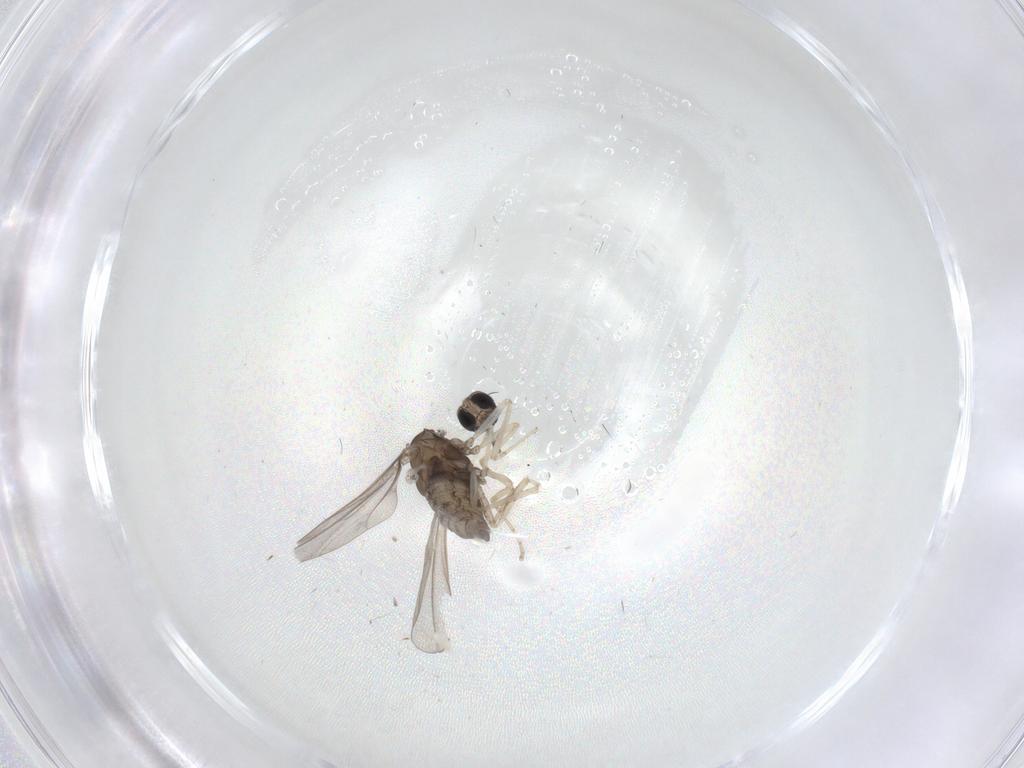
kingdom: Animalia
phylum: Arthropoda
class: Insecta
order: Diptera
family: Cecidomyiidae
